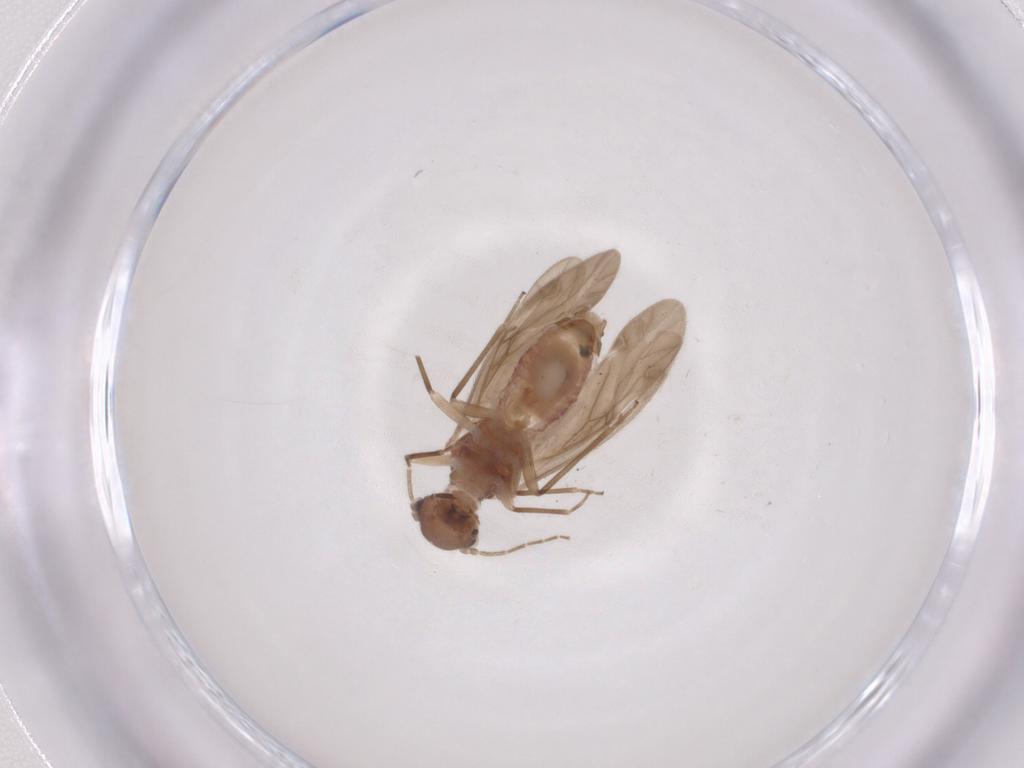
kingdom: Animalia
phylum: Arthropoda
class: Insecta
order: Psocodea
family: Caeciliusidae
